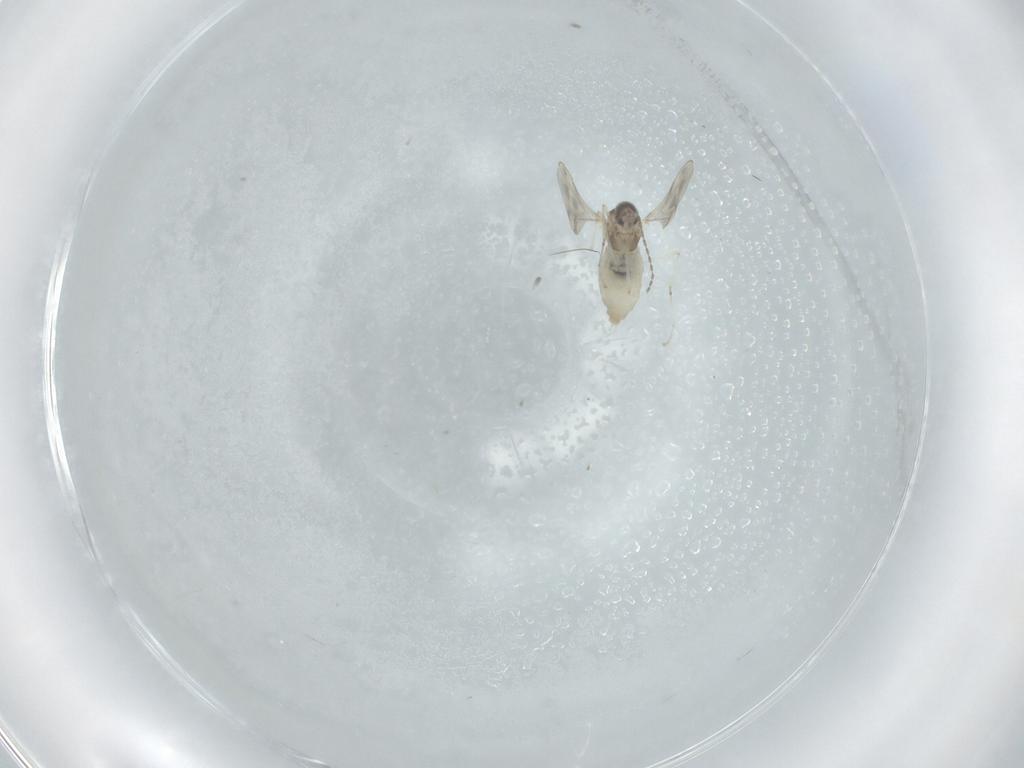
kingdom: Animalia
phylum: Arthropoda
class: Insecta
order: Diptera
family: Cecidomyiidae
